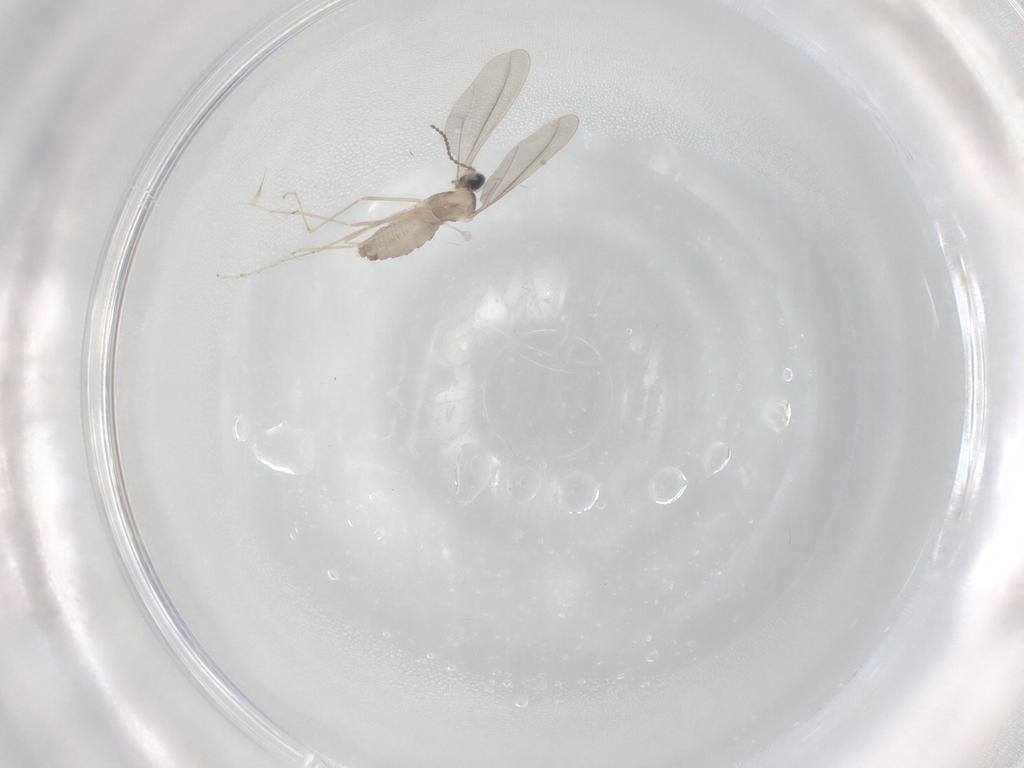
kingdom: Animalia
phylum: Arthropoda
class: Insecta
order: Diptera
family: Cecidomyiidae
